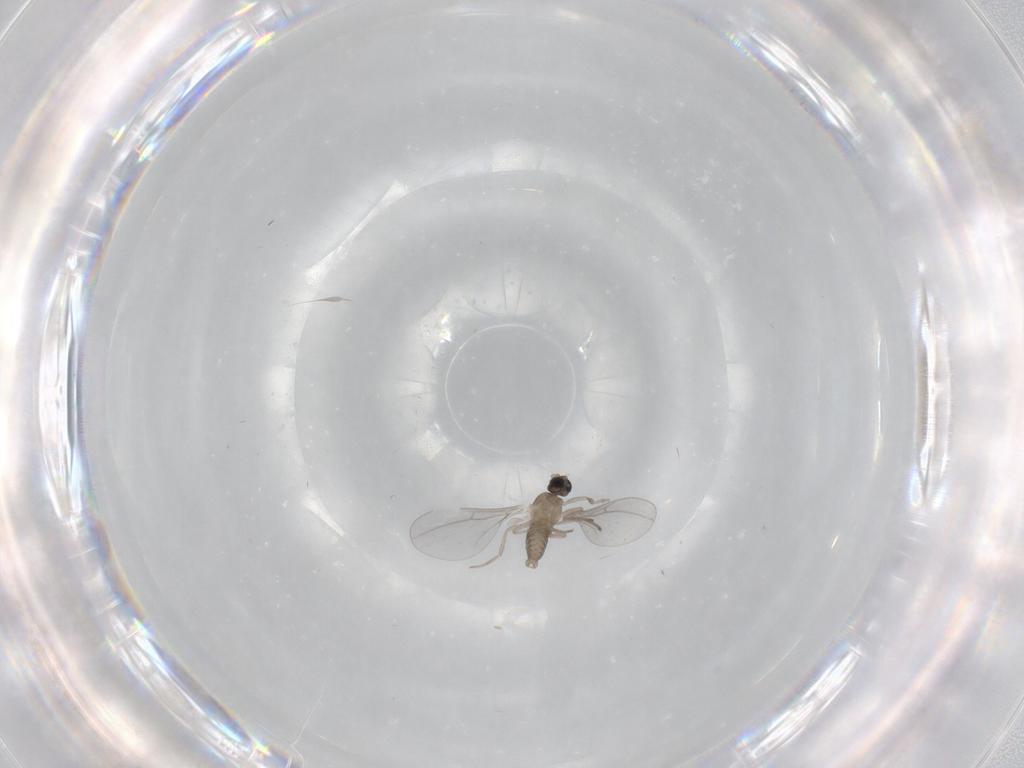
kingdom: Animalia
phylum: Arthropoda
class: Insecta
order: Diptera
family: Cecidomyiidae
